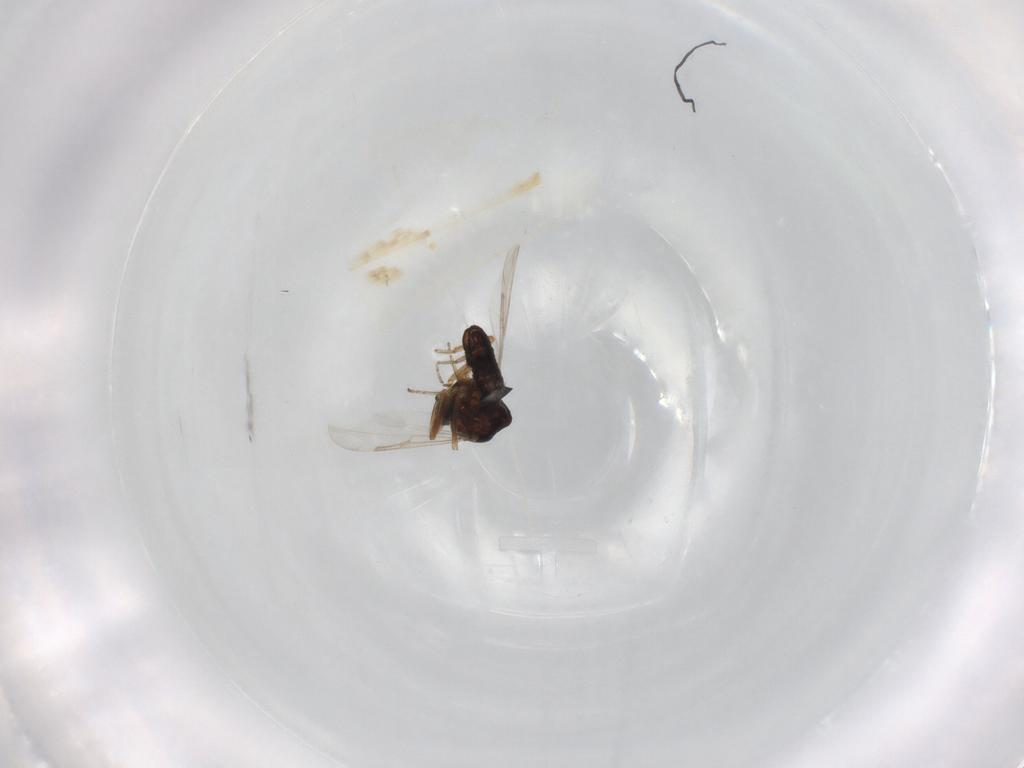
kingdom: Animalia
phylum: Arthropoda
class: Insecta
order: Diptera
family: Ceratopogonidae
